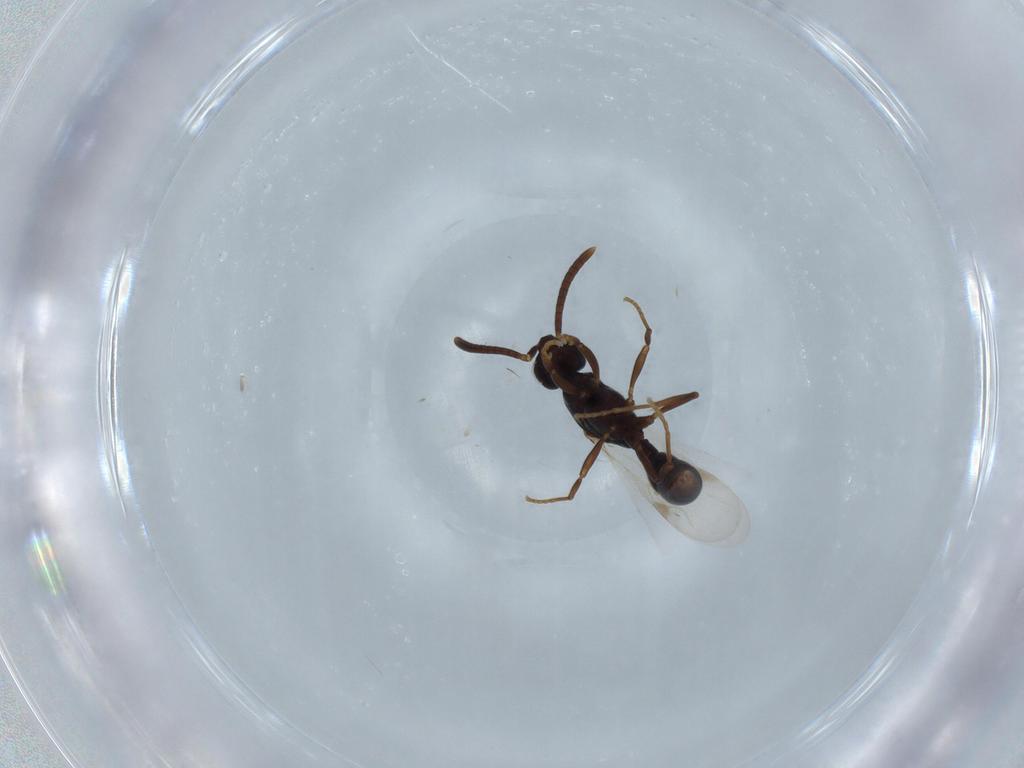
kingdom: Animalia
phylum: Arthropoda
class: Insecta
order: Hymenoptera
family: Formicidae
